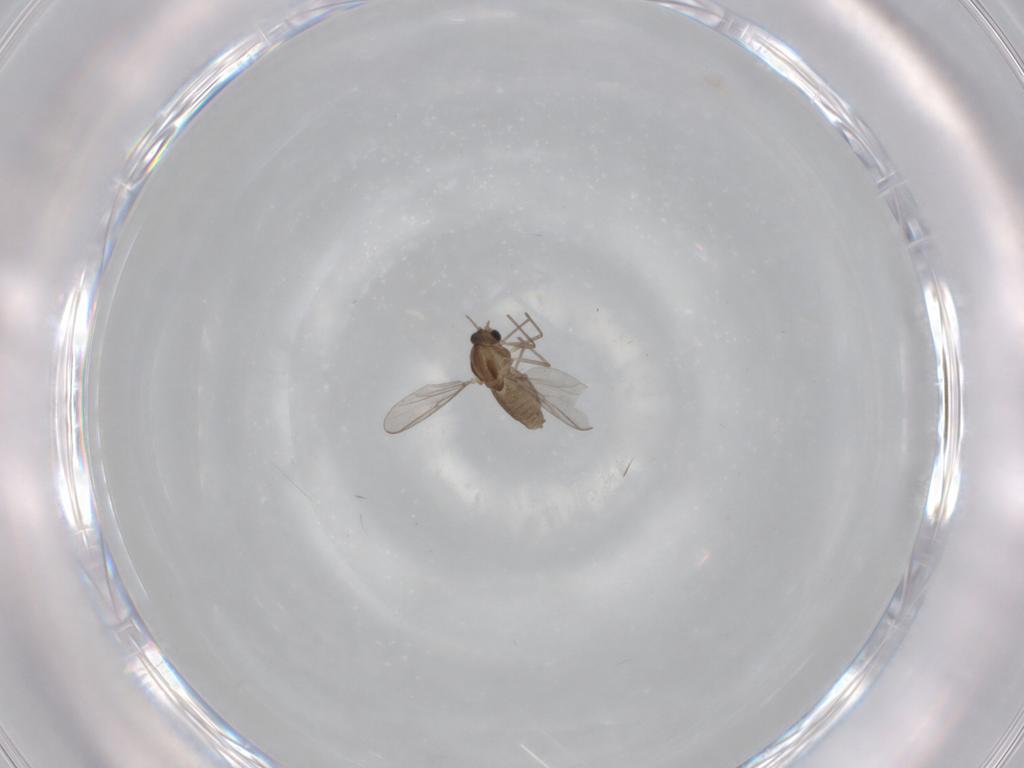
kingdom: Animalia
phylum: Arthropoda
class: Insecta
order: Diptera
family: Chironomidae
